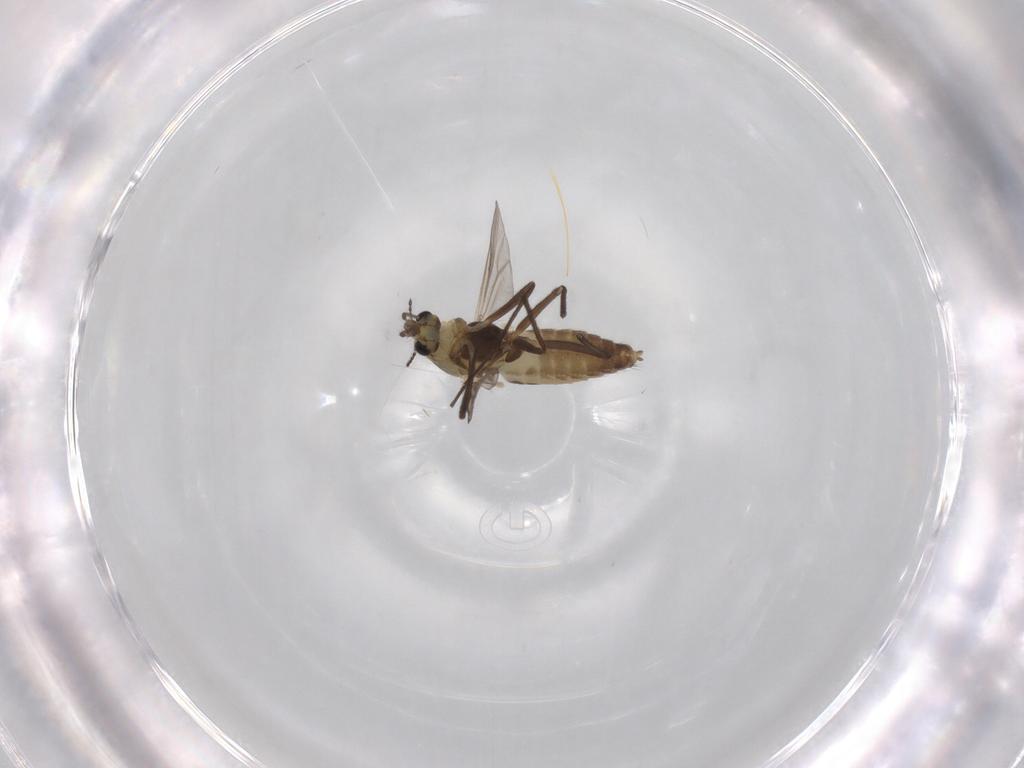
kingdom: Animalia
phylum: Arthropoda
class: Insecta
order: Diptera
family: Chironomidae
